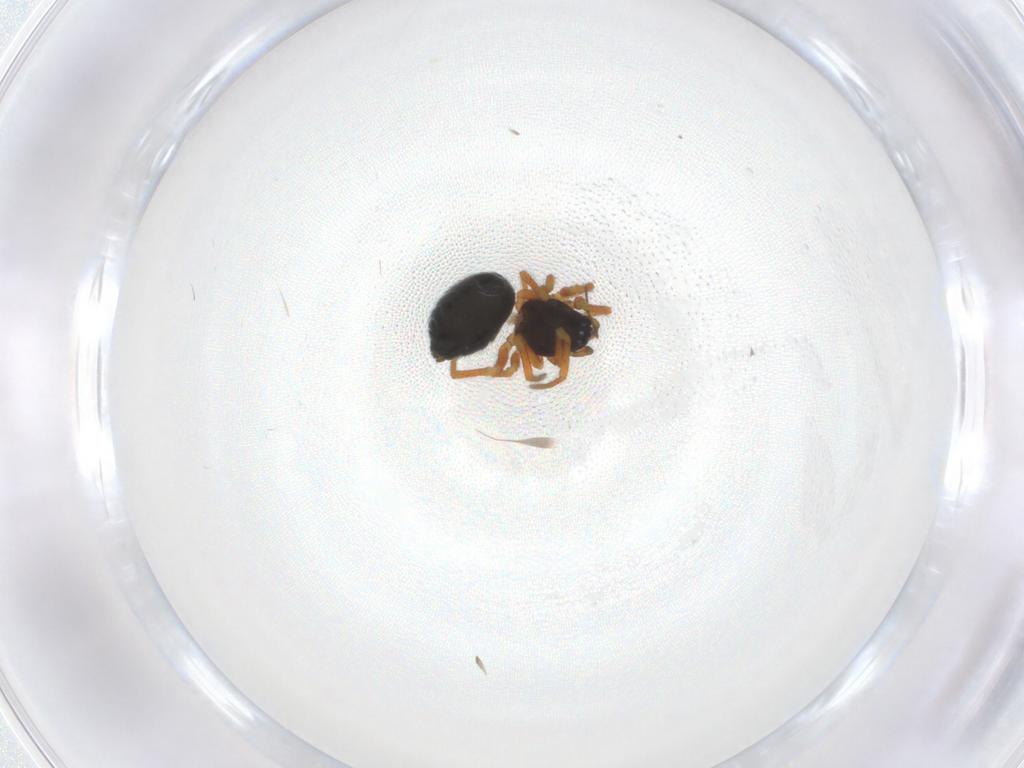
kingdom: Animalia
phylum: Arthropoda
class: Arachnida
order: Araneae
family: Linyphiidae
